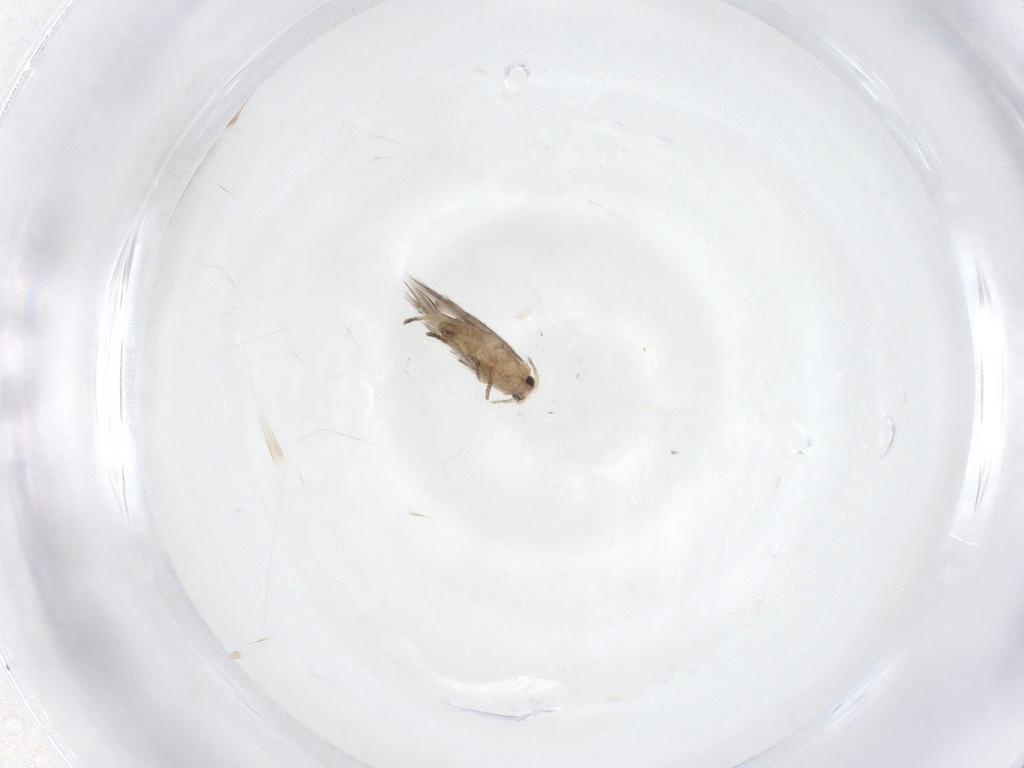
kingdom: Animalia
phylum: Arthropoda
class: Insecta
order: Lepidoptera
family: Nepticulidae
